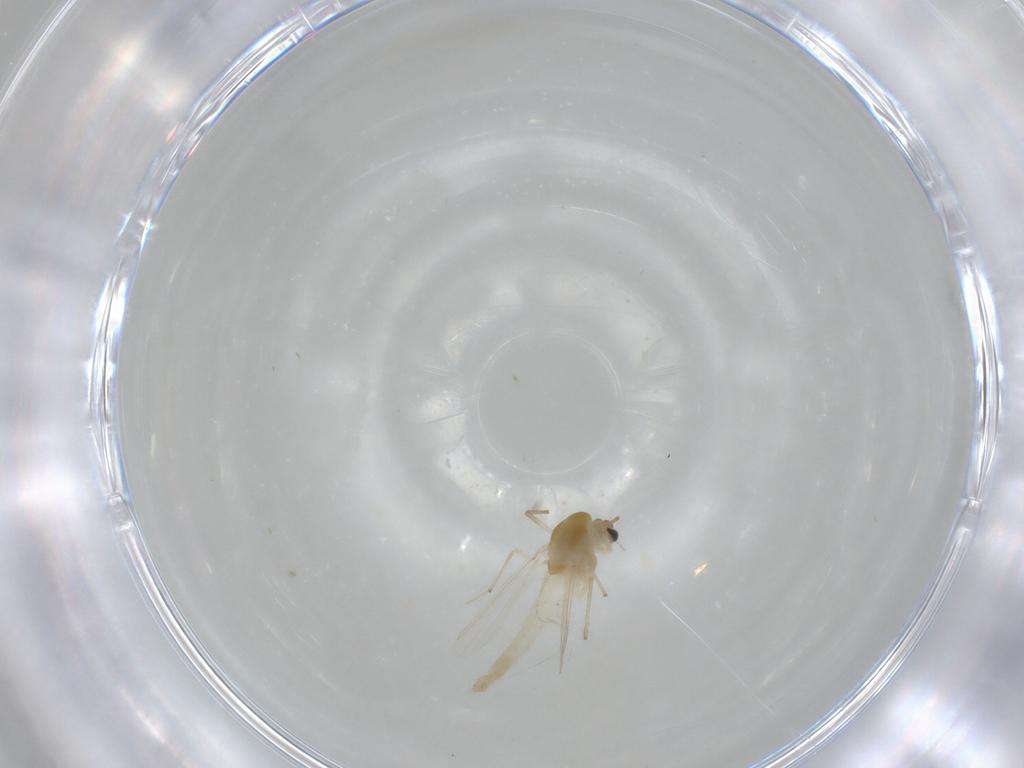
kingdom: Animalia
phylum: Arthropoda
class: Insecta
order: Diptera
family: Chironomidae
